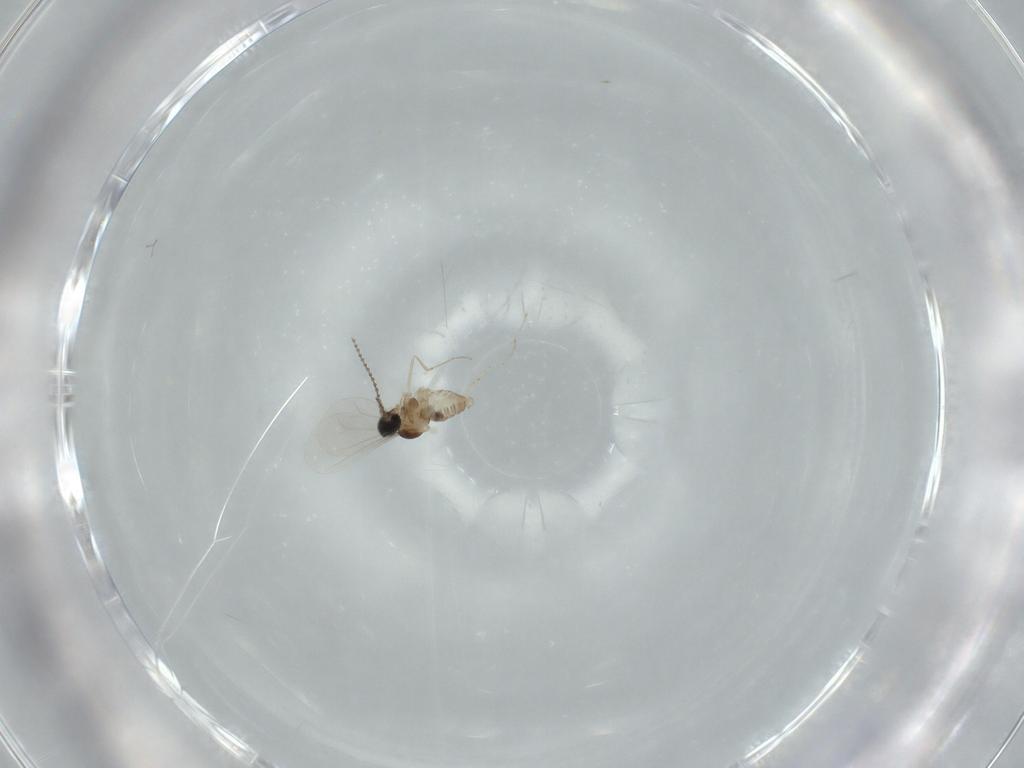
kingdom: Animalia
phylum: Arthropoda
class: Insecta
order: Diptera
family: Cecidomyiidae
